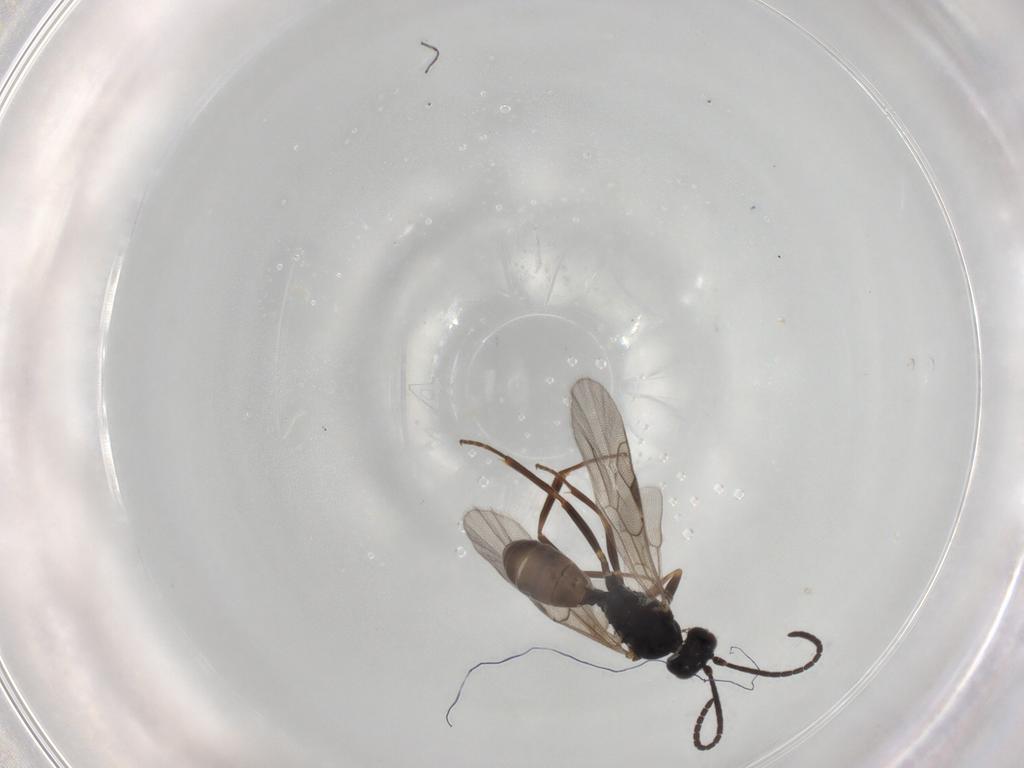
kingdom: Animalia
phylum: Arthropoda
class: Insecta
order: Hymenoptera
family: Ichneumonidae
